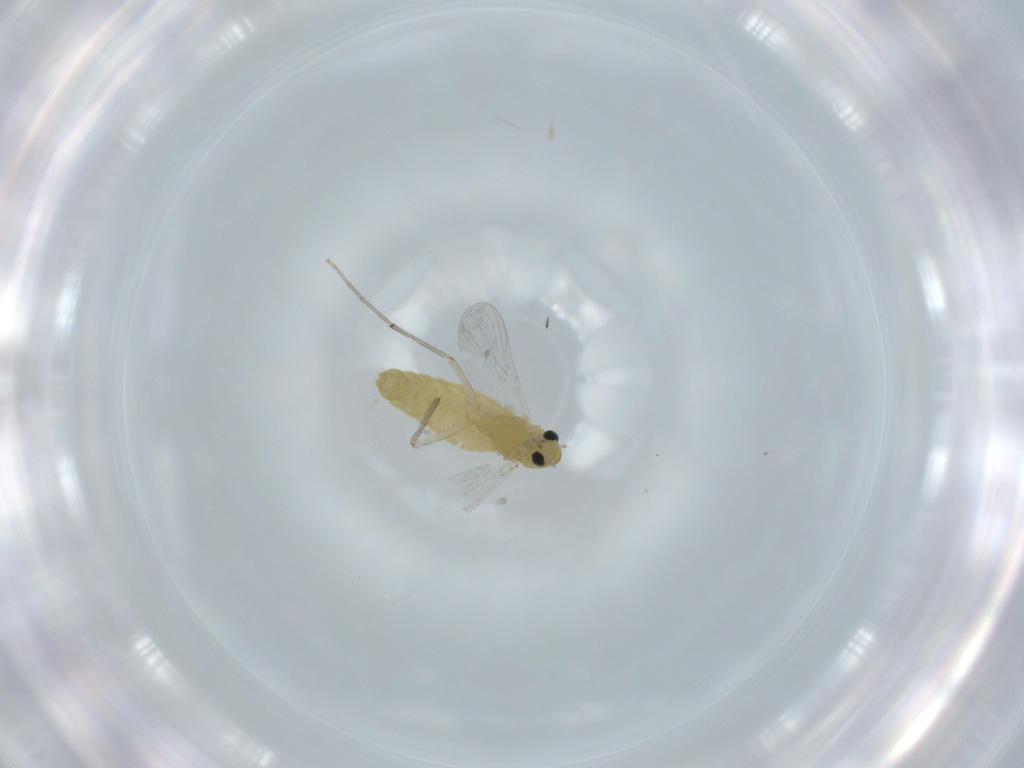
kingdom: Animalia
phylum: Arthropoda
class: Insecta
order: Diptera
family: Chironomidae
